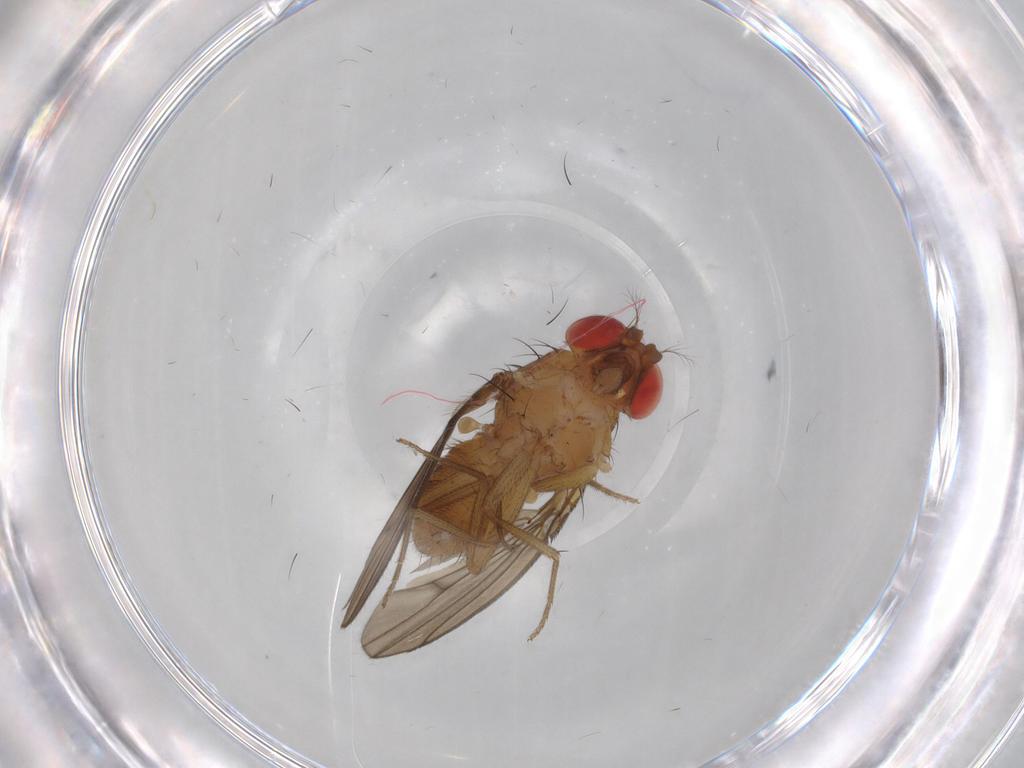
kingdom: Animalia
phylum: Arthropoda
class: Insecta
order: Diptera
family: Drosophilidae
